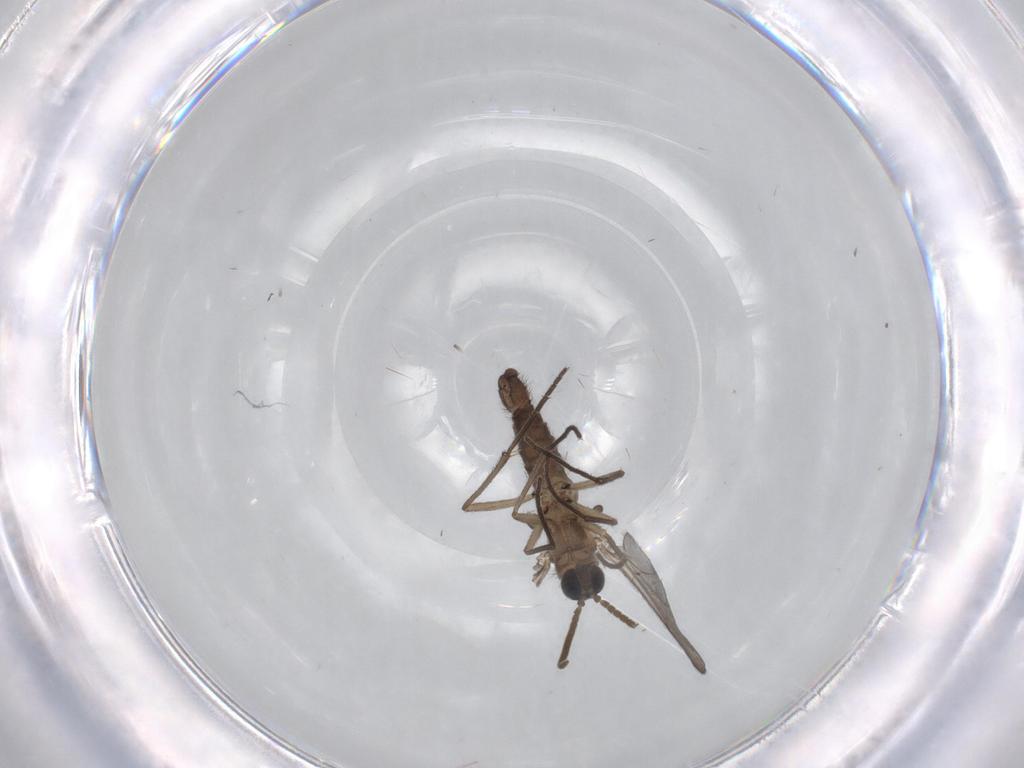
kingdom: Animalia
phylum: Arthropoda
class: Insecta
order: Diptera
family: Cecidomyiidae
